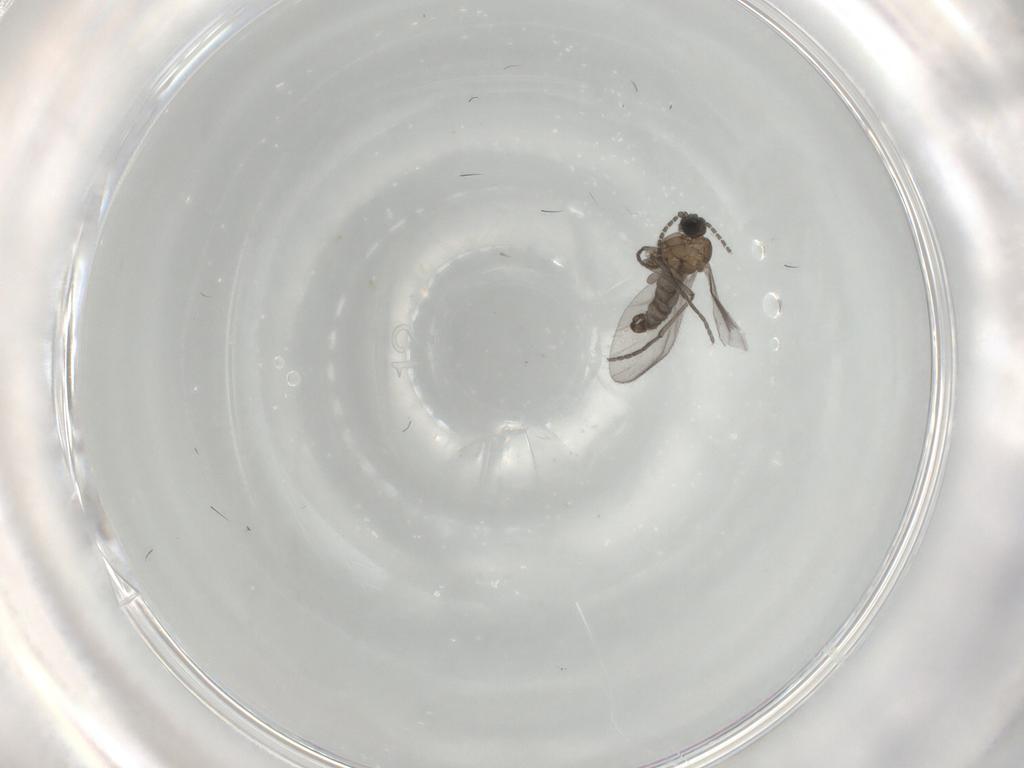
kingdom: Animalia
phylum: Arthropoda
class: Insecta
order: Diptera
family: Sciaridae
